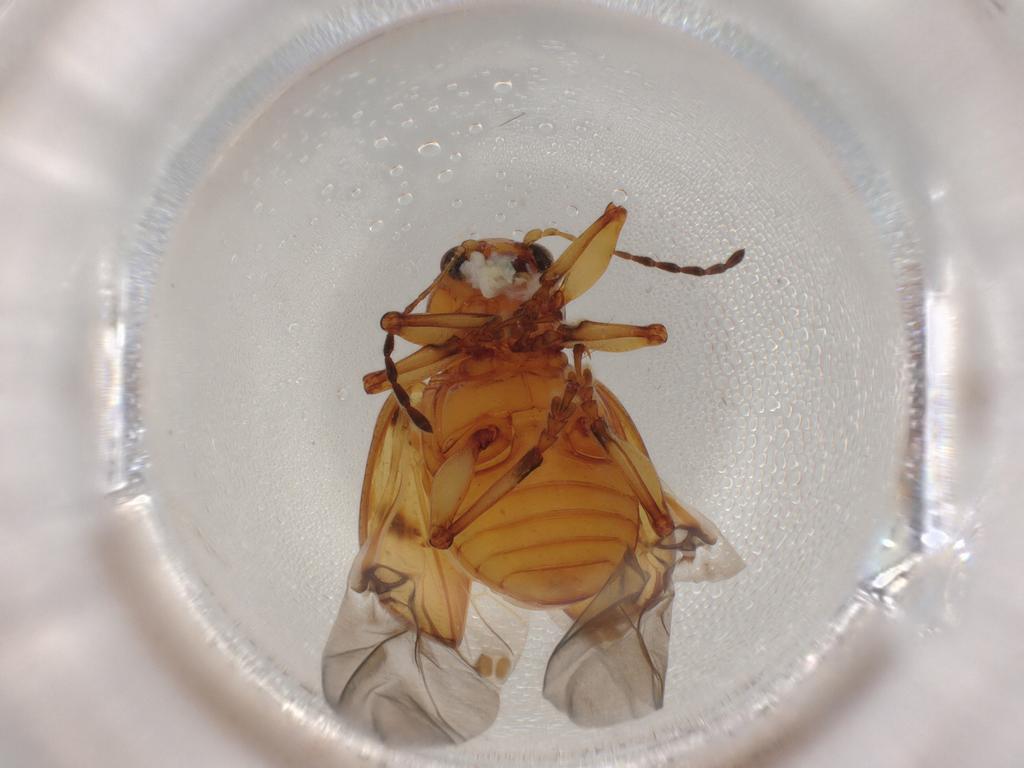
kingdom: Animalia
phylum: Arthropoda
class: Insecta
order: Coleoptera
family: Chrysomelidae
